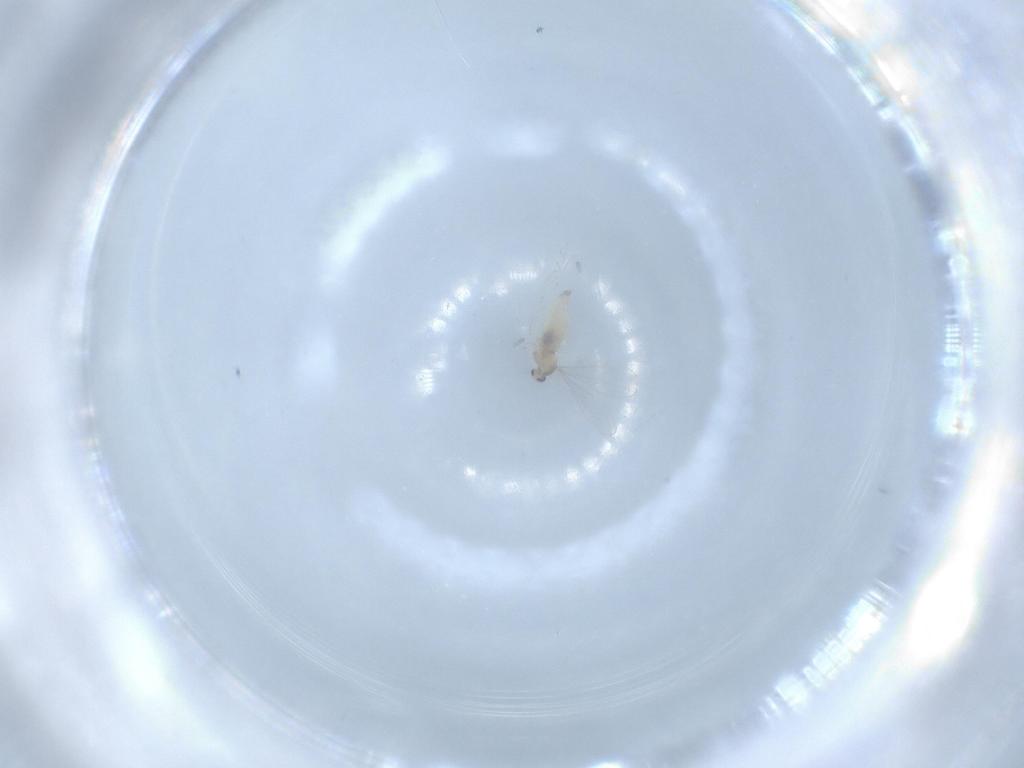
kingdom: Animalia
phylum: Arthropoda
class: Insecta
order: Diptera
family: Cecidomyiidae
